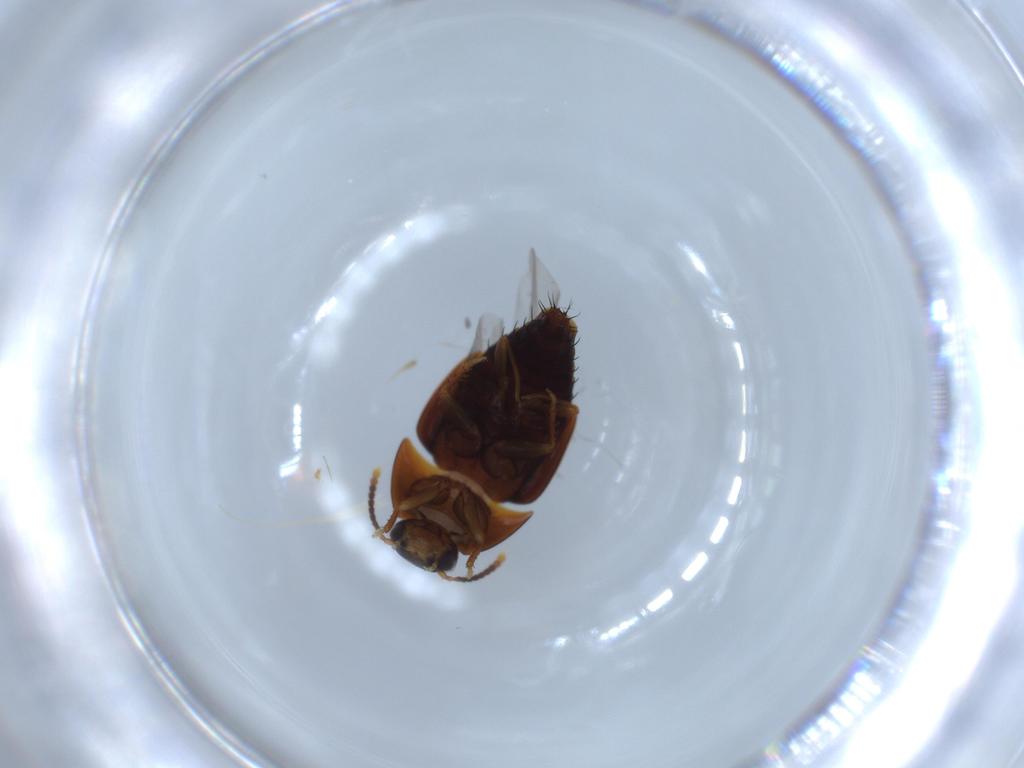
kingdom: Animalia
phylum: Arthropoda
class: Insecta
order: Coleoptera
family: Staphylinidae
